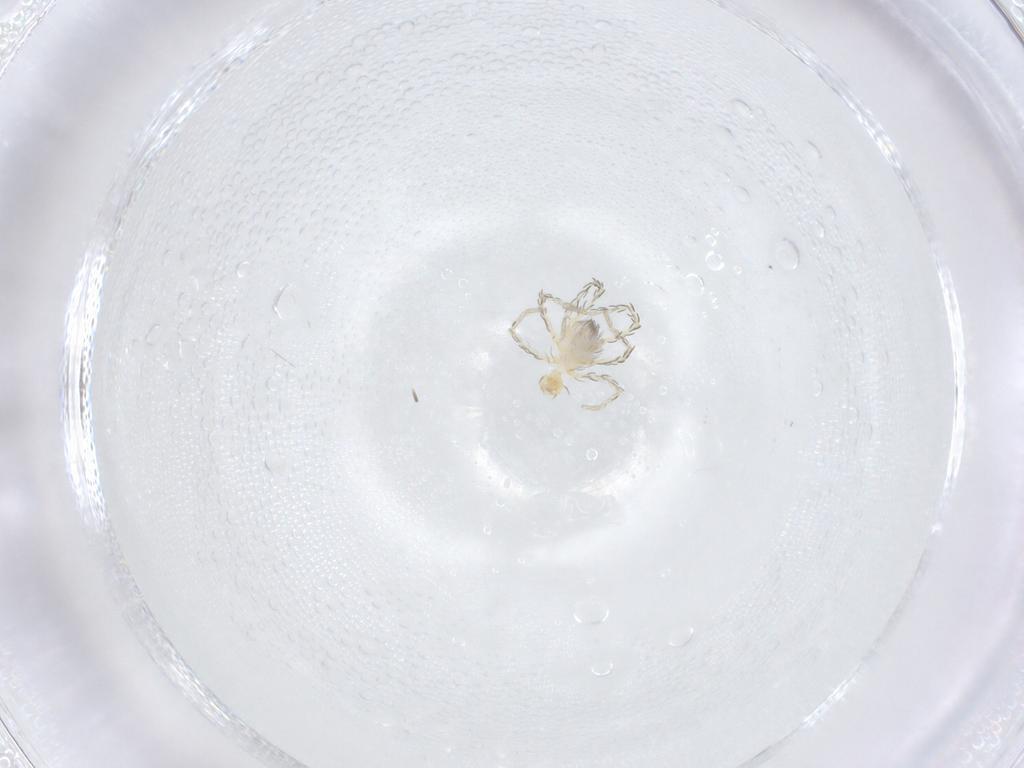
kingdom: Animalia
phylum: Arthropoda
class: Arachnida
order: Trombidiformes
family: Erythraeidae
